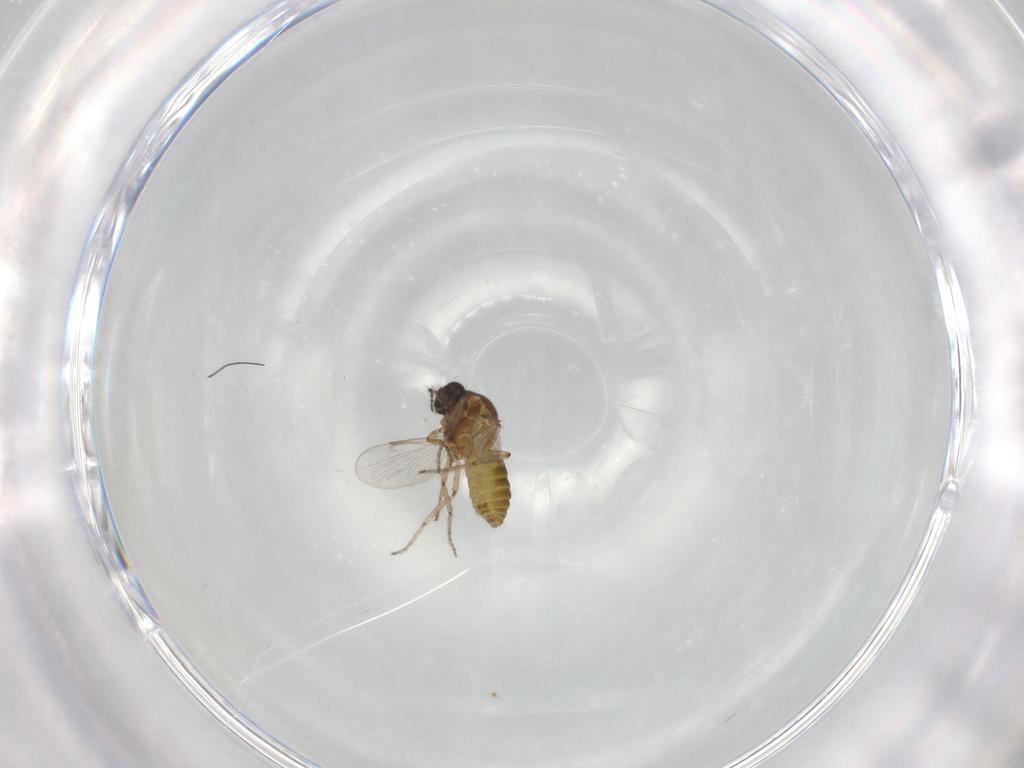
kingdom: Animalia
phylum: Arthropoda
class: Insecta
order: Diptera
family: Ceratopogonidae
